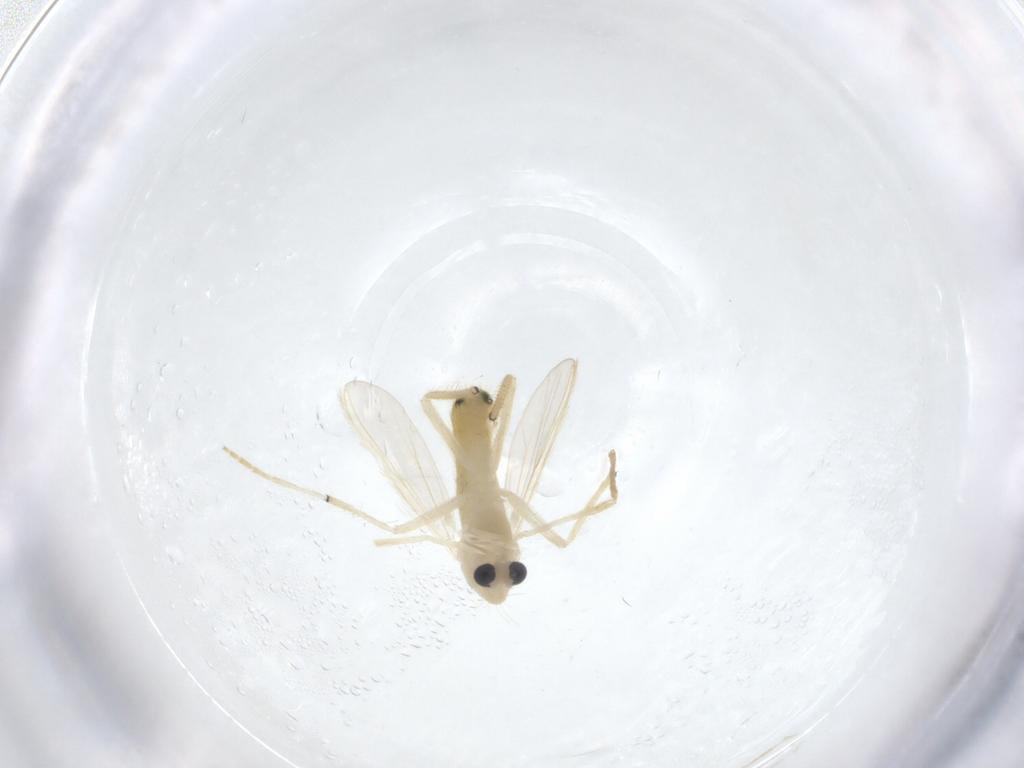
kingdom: Animalia
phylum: Arthropoda
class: Insecta
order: Diptera
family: Chironomidae
